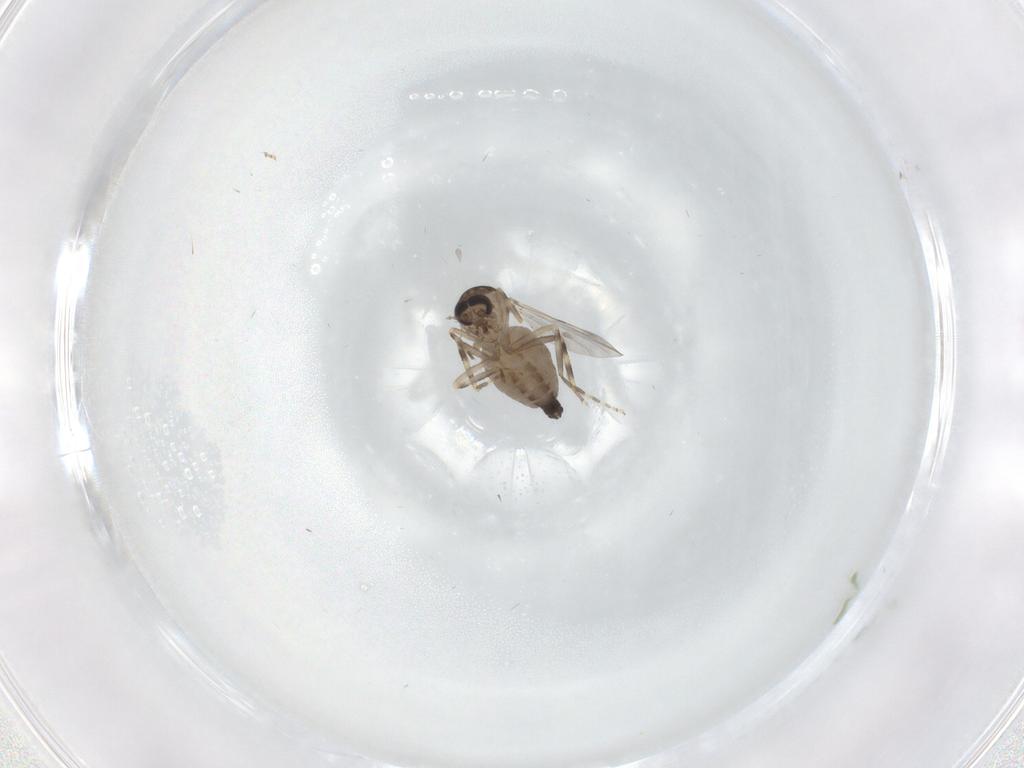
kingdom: Animalia
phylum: Arthropoda
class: Insecta
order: Diptera
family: Ceratopogonidae
